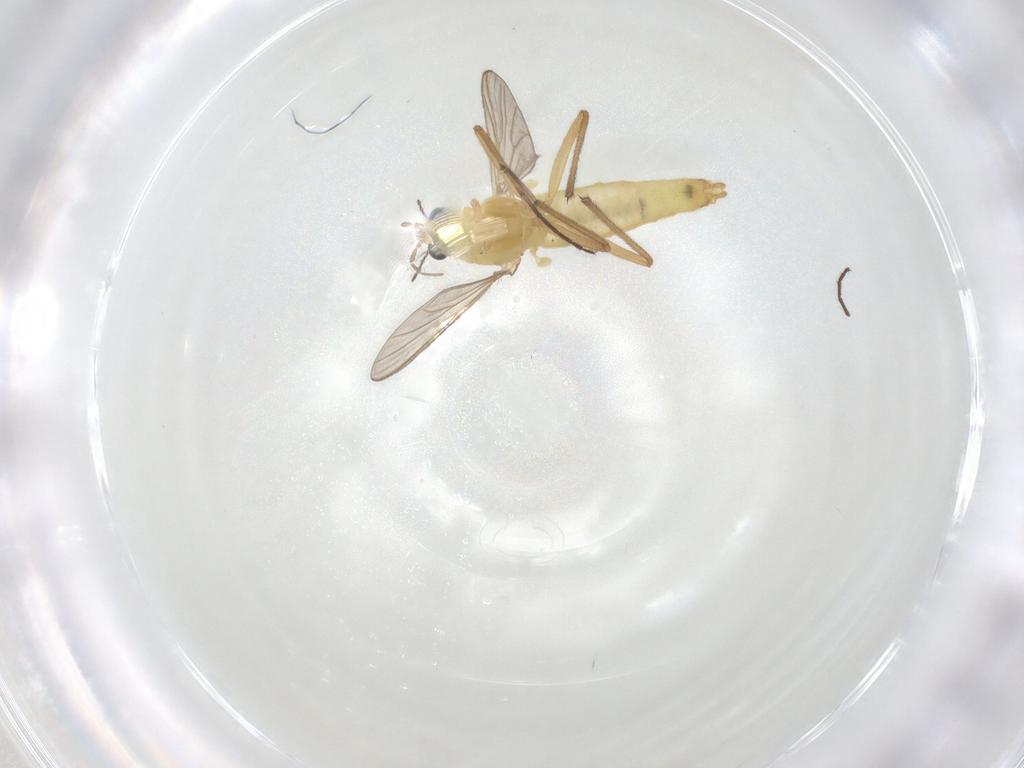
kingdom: Animalia
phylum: Arthropoda
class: Insecta
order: Diptera
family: Chironomidae
